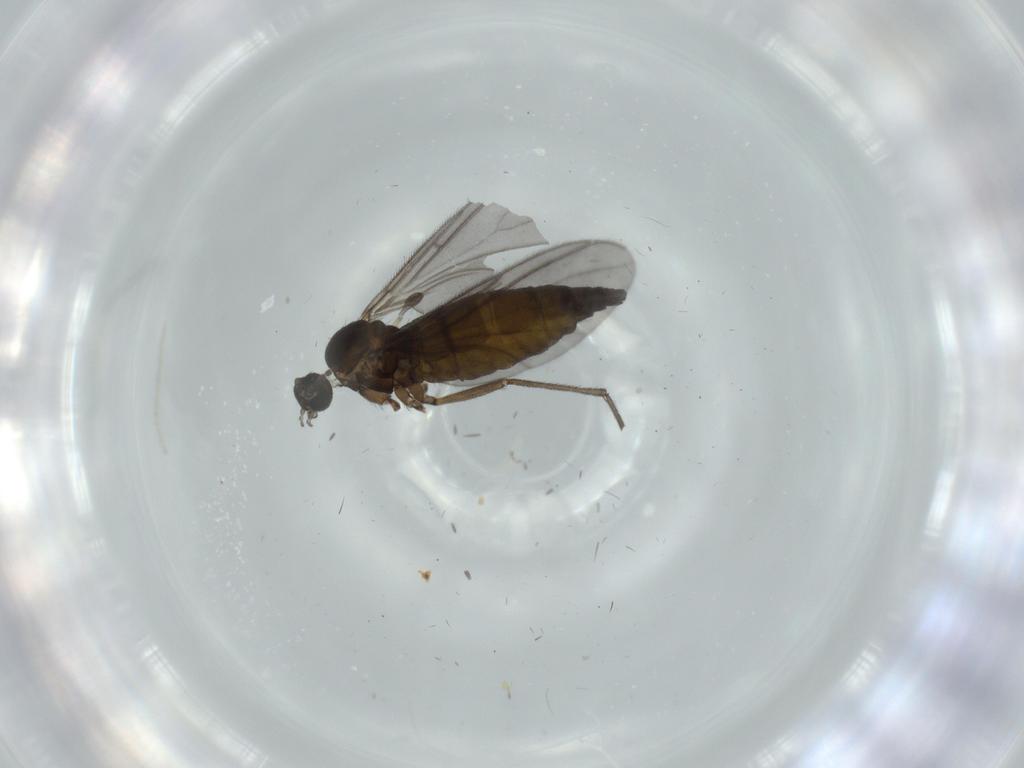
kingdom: Animalia
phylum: Arthropoda
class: Insecta
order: Diptera
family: Sciaridae
